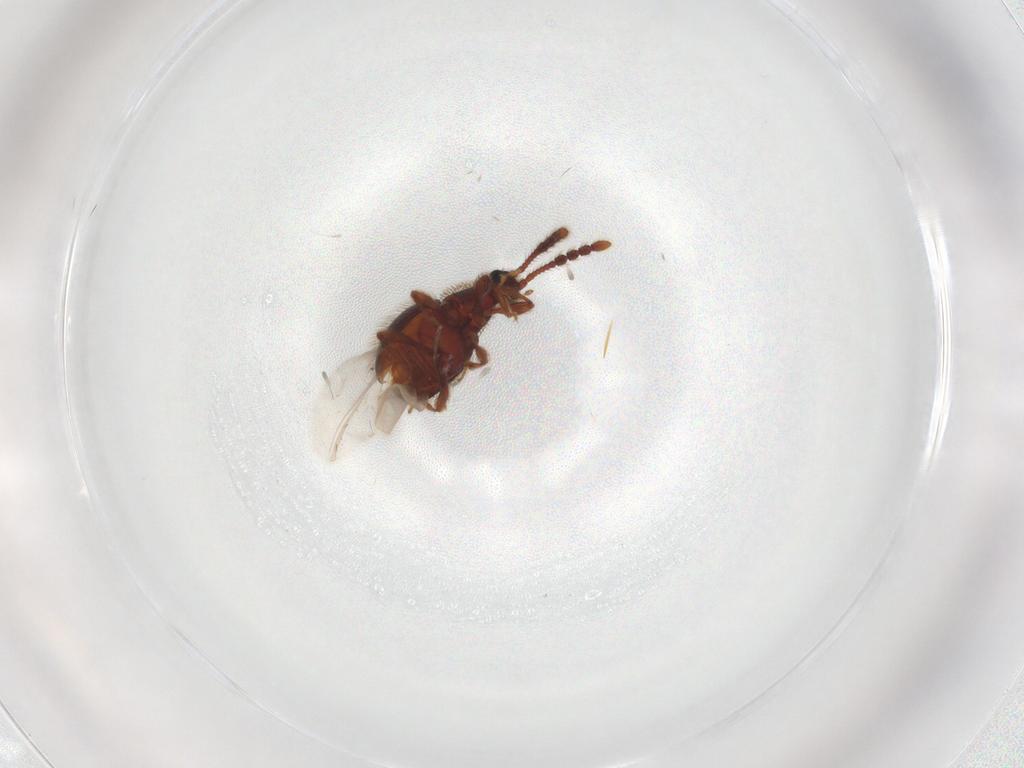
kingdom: Animalia
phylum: Arthropoda
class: Insecta
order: Coleoptera
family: Staphylinidae
